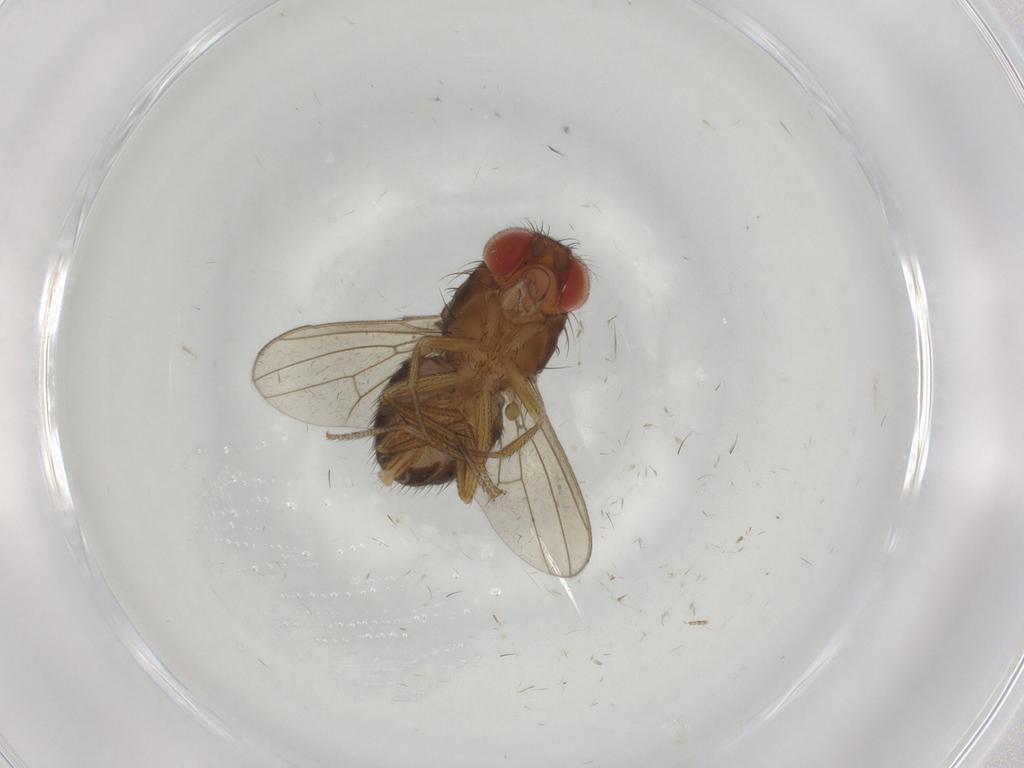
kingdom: Animalia
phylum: Arthropoda
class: Insecta
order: Diptera
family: Drosophilidae
